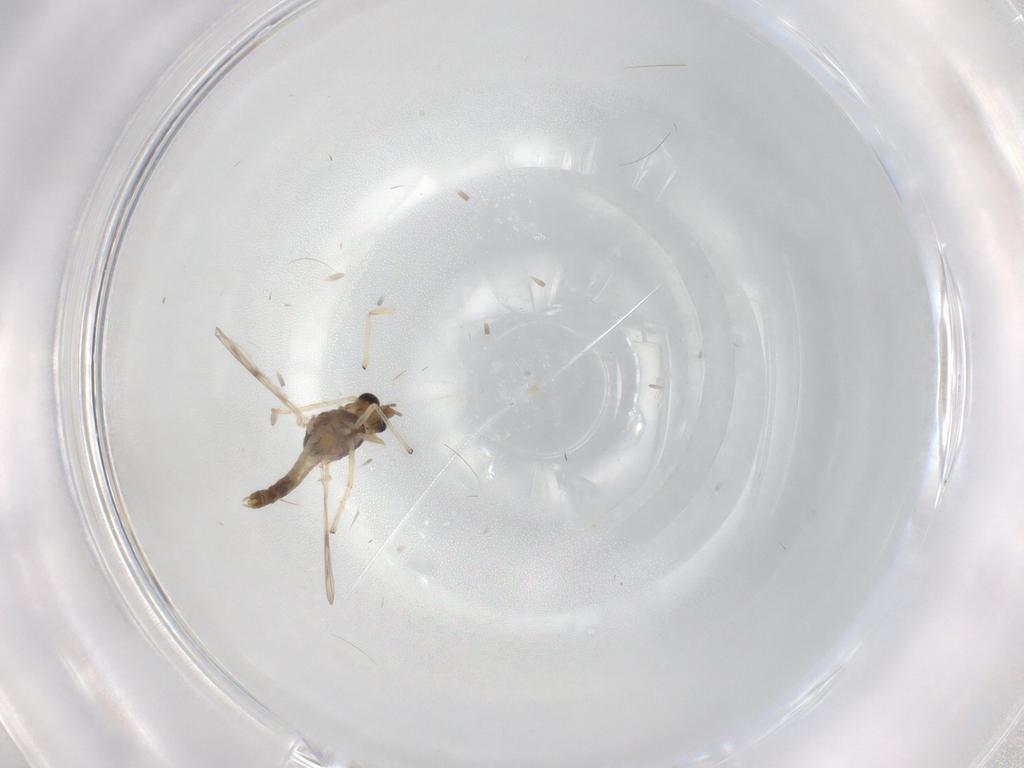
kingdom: Animalia
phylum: Arthropoda
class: Insecta
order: Diptera
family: Chironomidae
